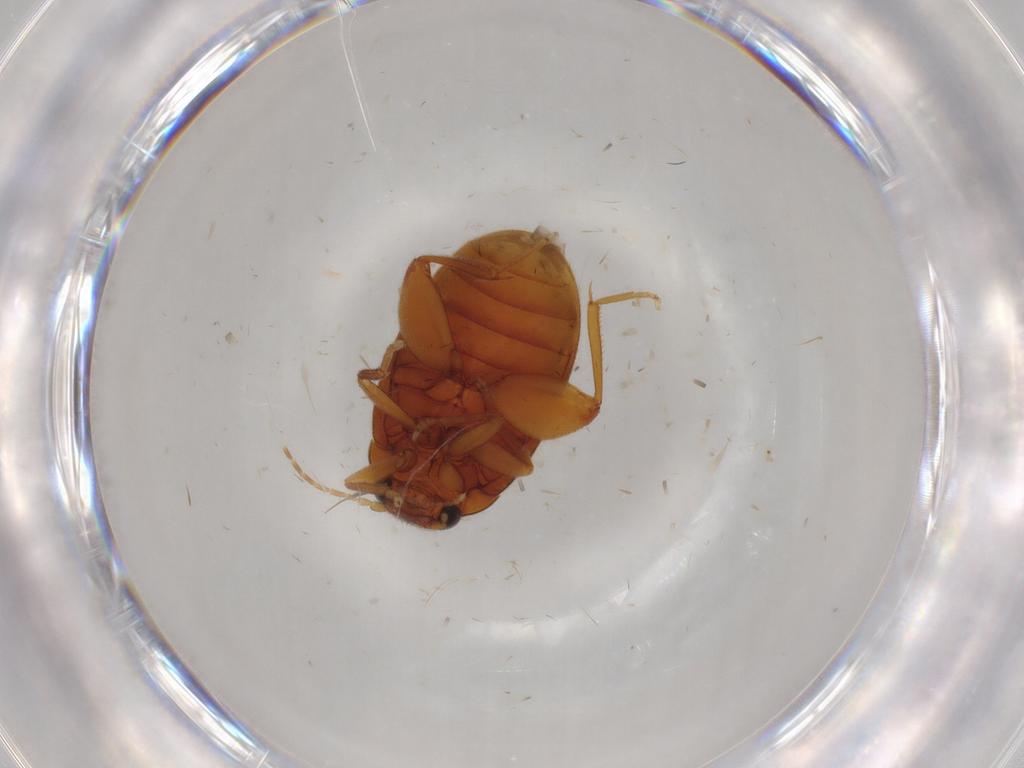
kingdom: Animalia
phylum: Arthropoda
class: Insecta
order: Coleoptera
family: Scirtidae
